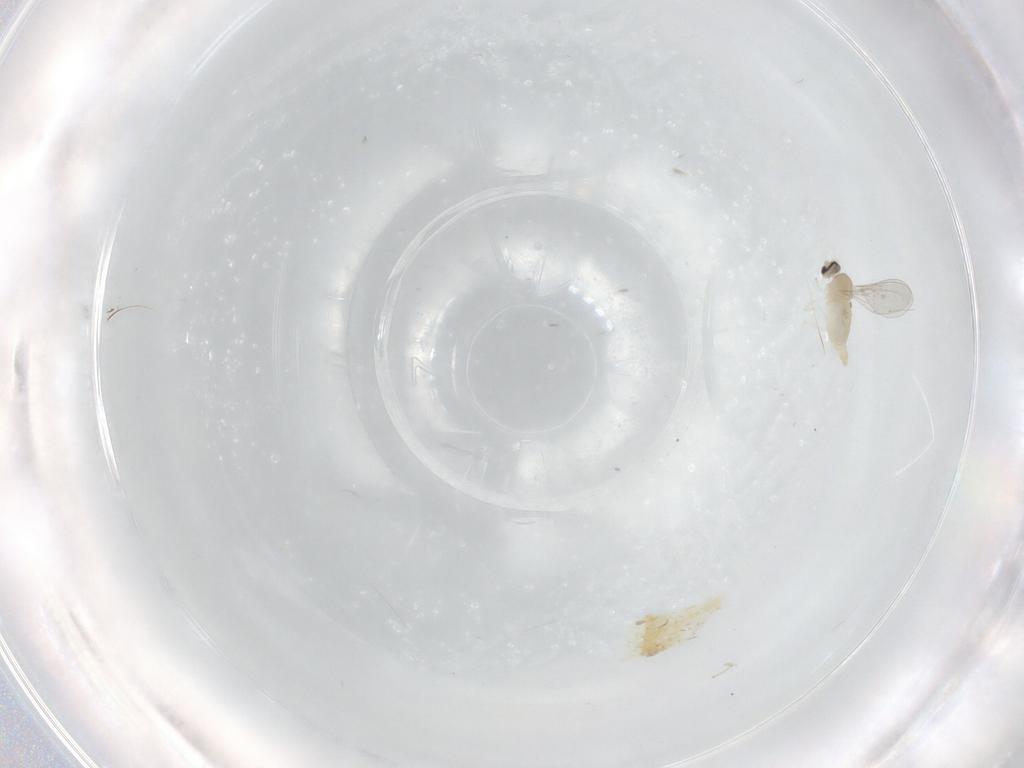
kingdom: Animalia
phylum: Arthropoda
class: Insecta
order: Diptera
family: Cecidomyiidae
